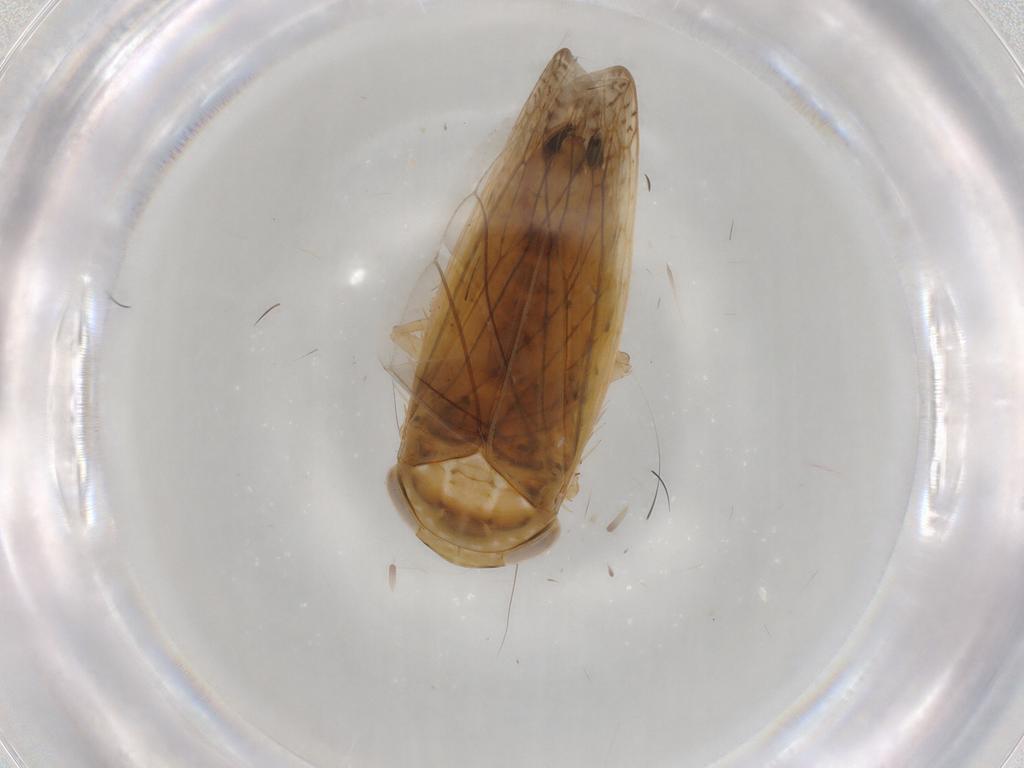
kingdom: Animalia
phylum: Arthropoda
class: Insecta
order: Hemiptera
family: Cicadellidae
